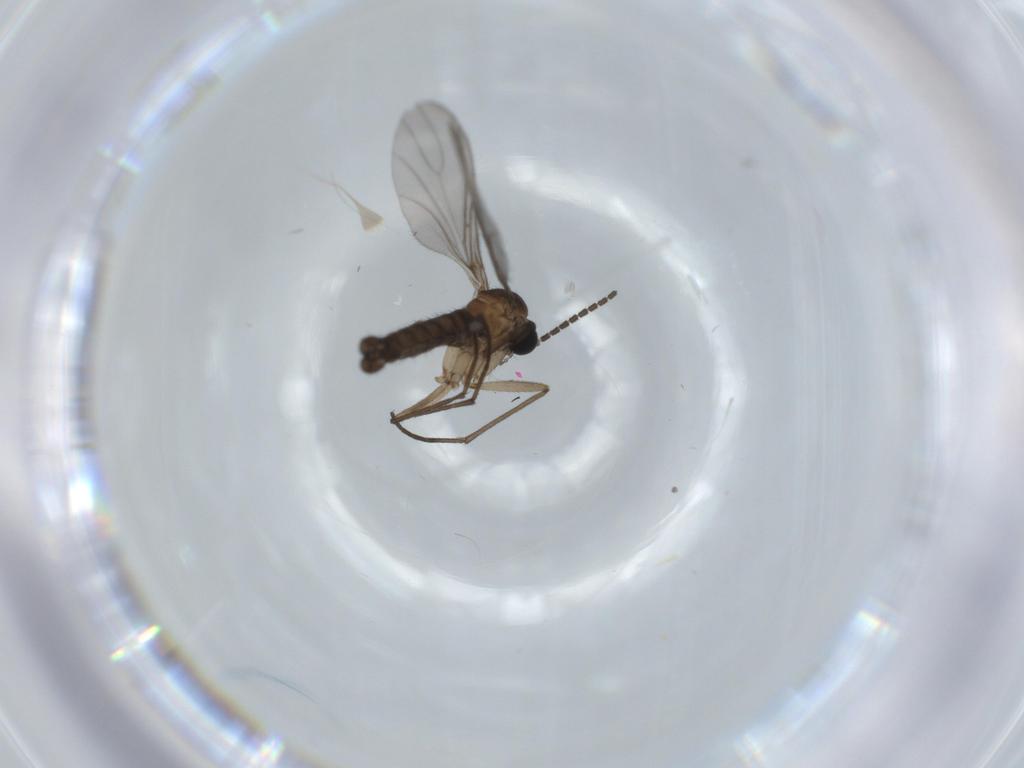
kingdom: Animalia
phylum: Arthropoda
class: Insecta
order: Diptera
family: Sciaridae
